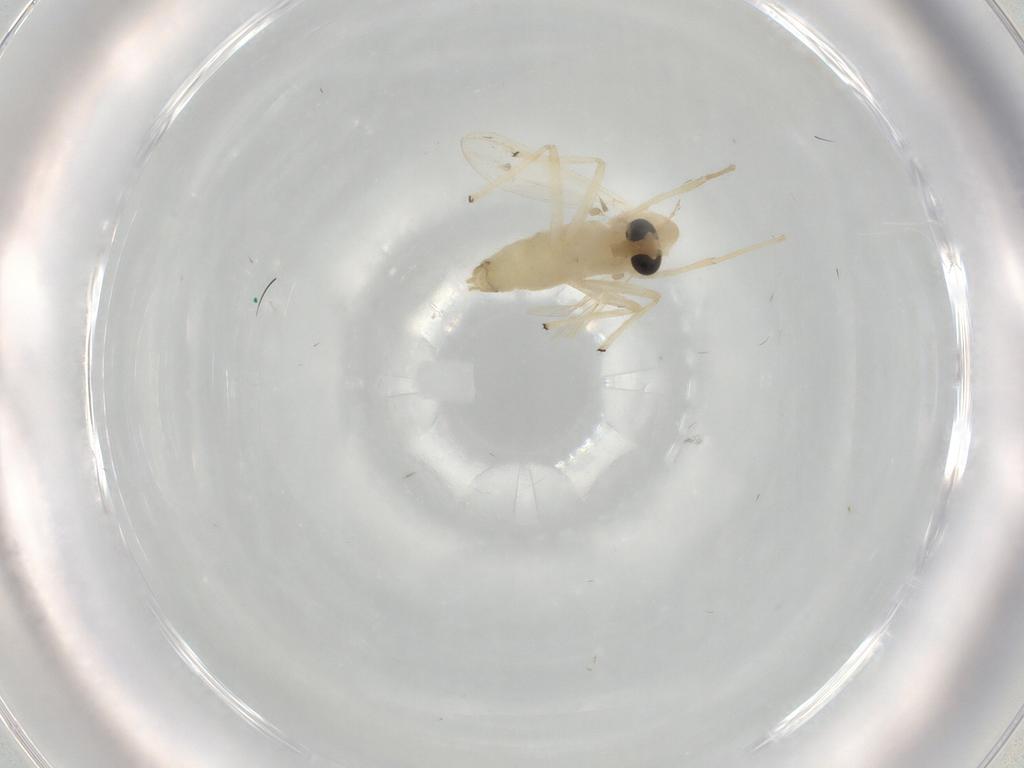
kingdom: Animalia
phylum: Arthropoda
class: Insecta
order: Diptera
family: Chironomidae
